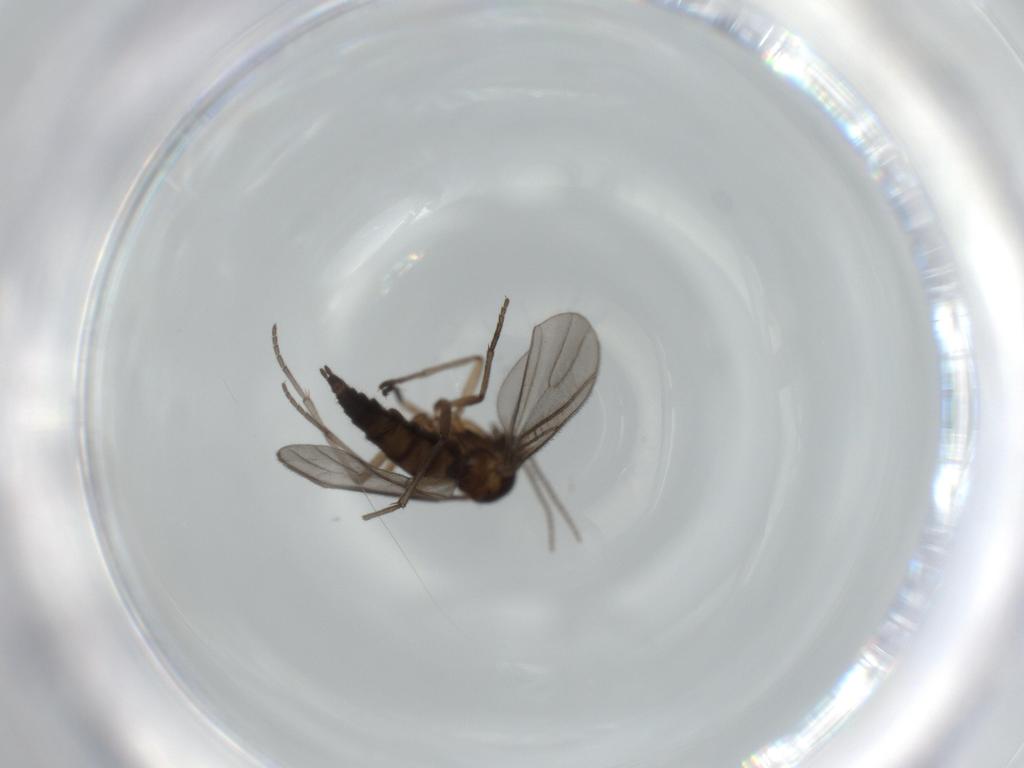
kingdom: Animalia
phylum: Arthropoda
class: Insecta
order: Diptera
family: Sciaridae
